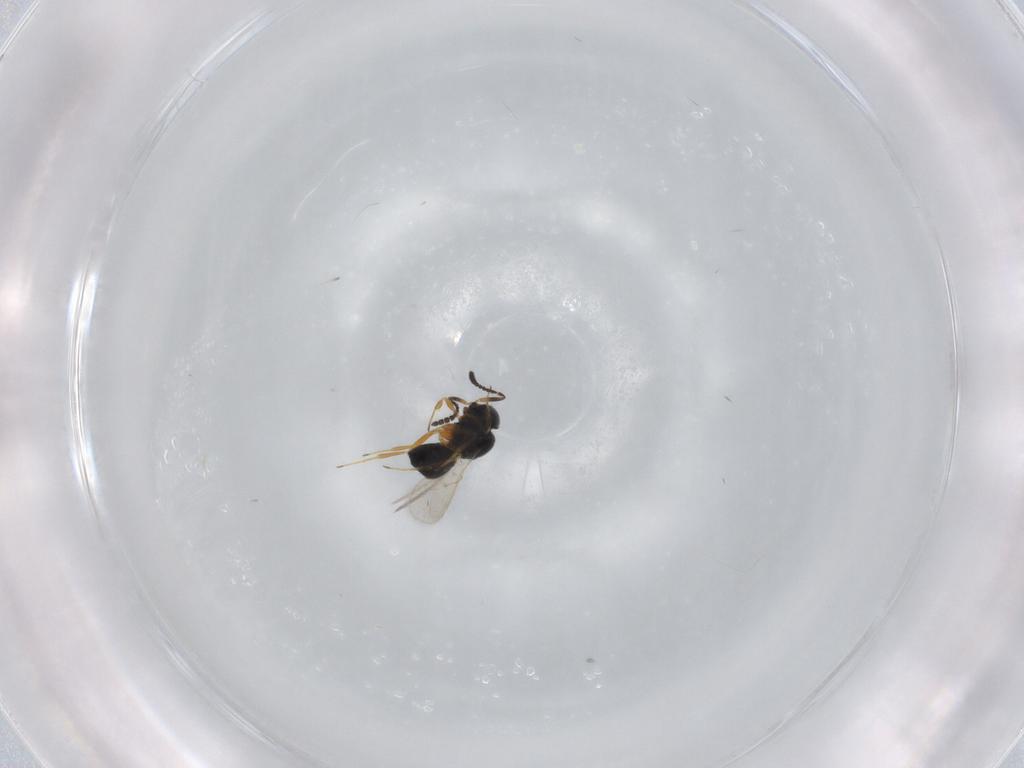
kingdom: Animalia
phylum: Arthropoda
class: Insecta
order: Hymenoptera
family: Scelionidae
